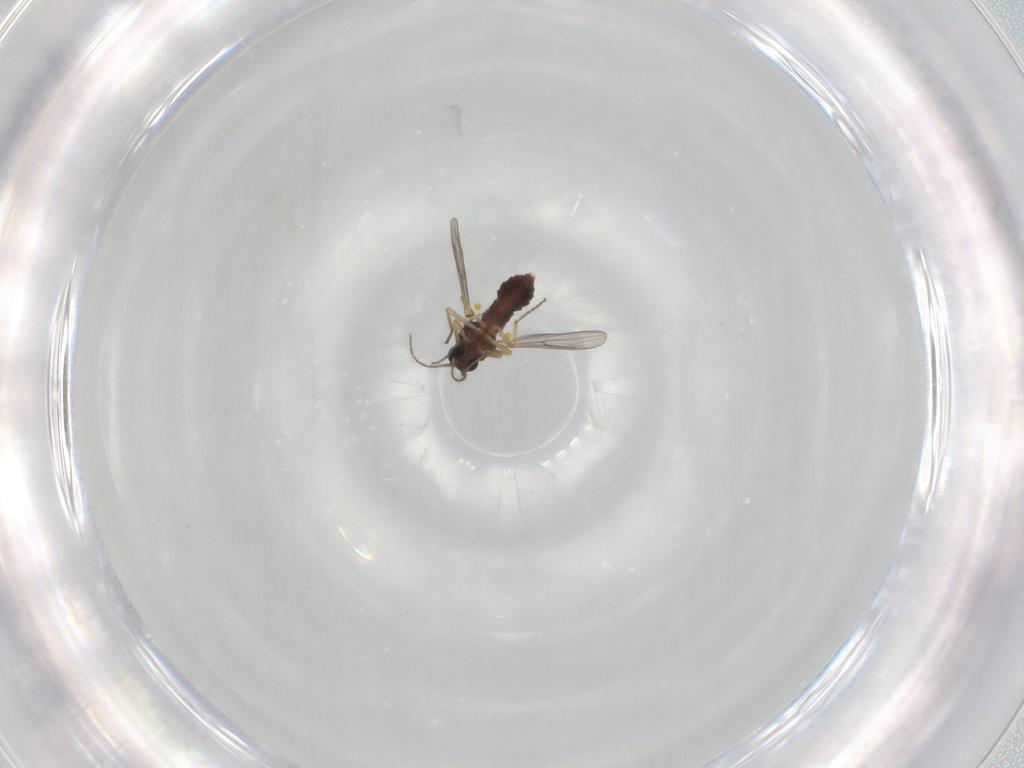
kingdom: Animalia
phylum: Arthropoda
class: Insecta
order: Diptera
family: Ceratopogonidae
